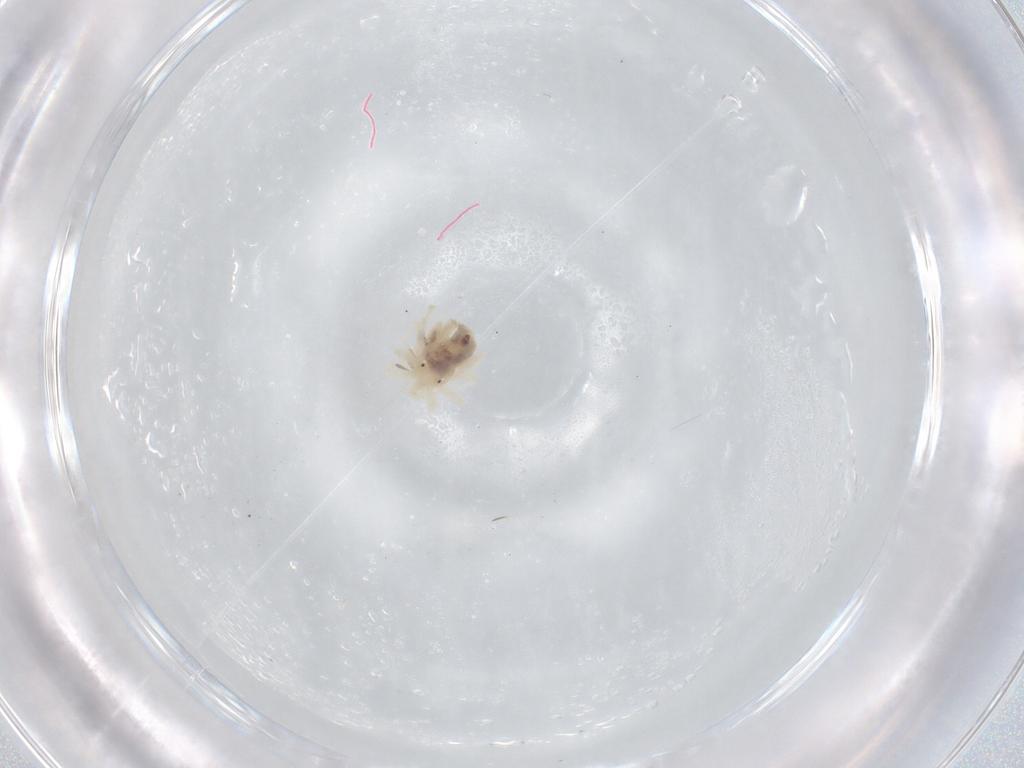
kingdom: Animalia
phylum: Arthropoda
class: Arachnida
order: Trombidiformes
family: Anystidae
